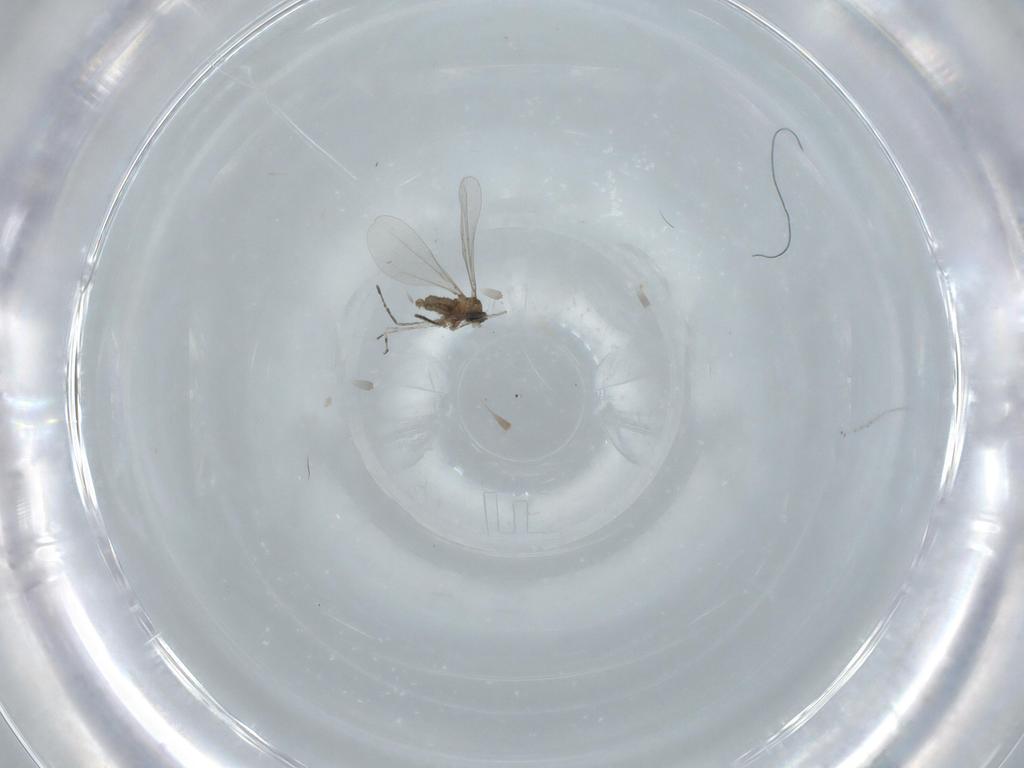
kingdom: Animalia
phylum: Arthropoda
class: Insecta
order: Diptera
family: Cecidomyiidae
